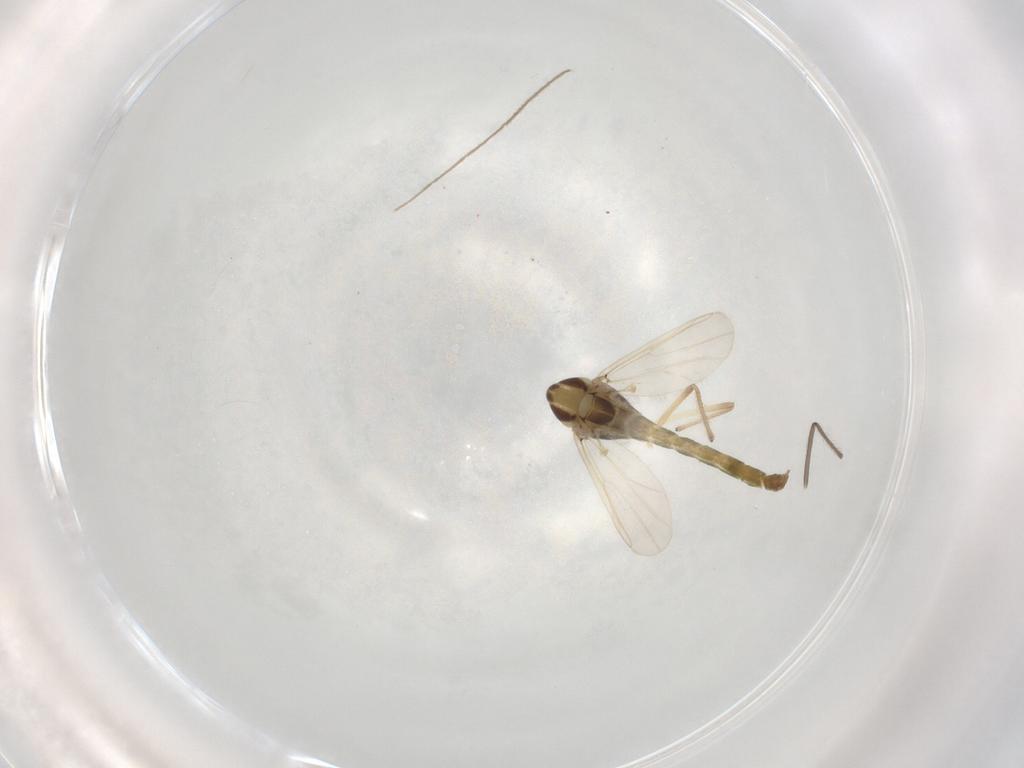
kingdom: Animalia
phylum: Arthropoda
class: Insecta
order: Diptera
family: Chironomidae
